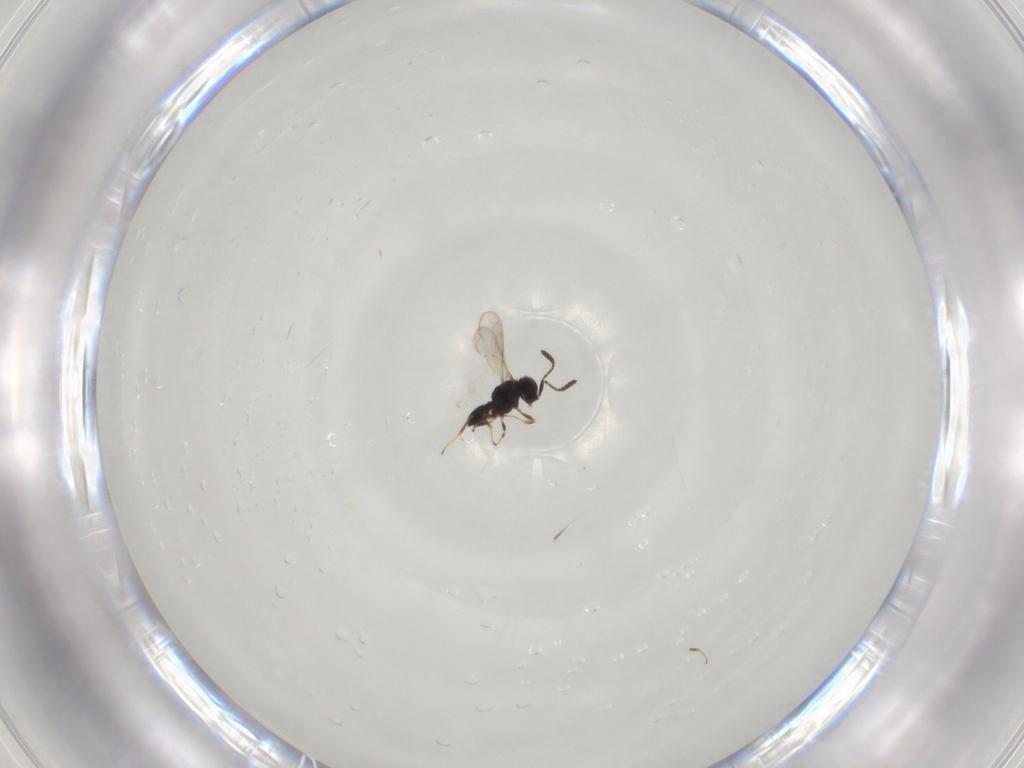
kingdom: Animalia
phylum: Arthropoda
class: Insecta
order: Hymenoptera
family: Scelionidae
